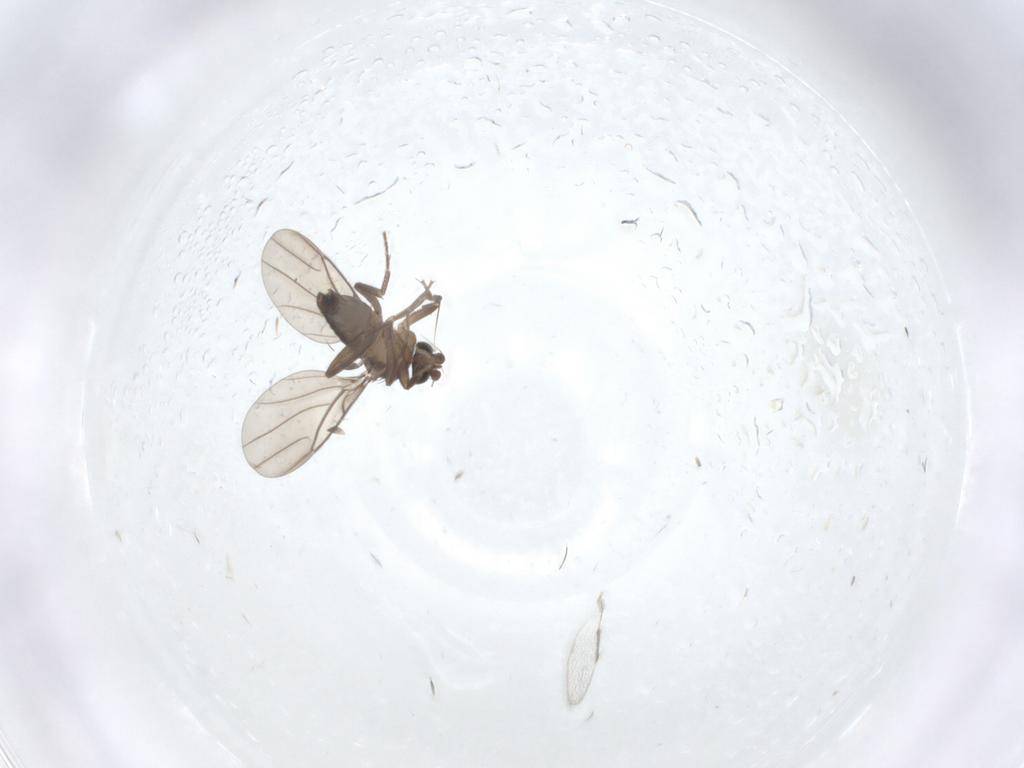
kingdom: Animalia
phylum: Arthropoda
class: Insecta
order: Diptera
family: Phoridae
